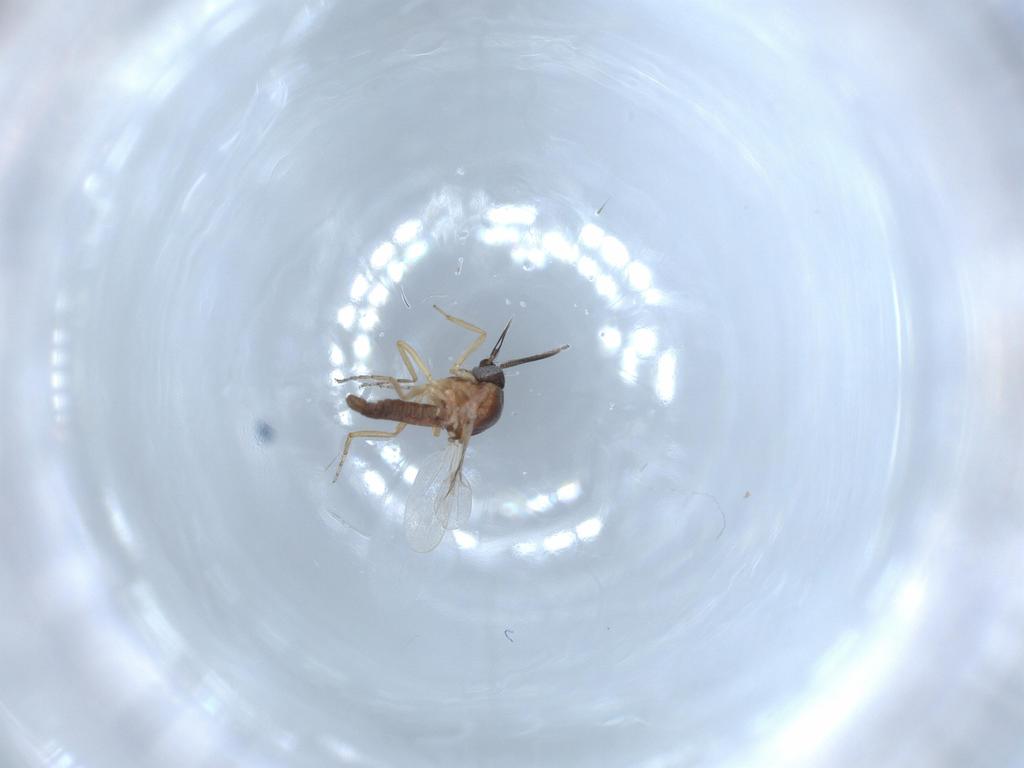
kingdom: Animalia
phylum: Arthropoda
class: Insecta
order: Diptera
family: Ceratopogonidae
